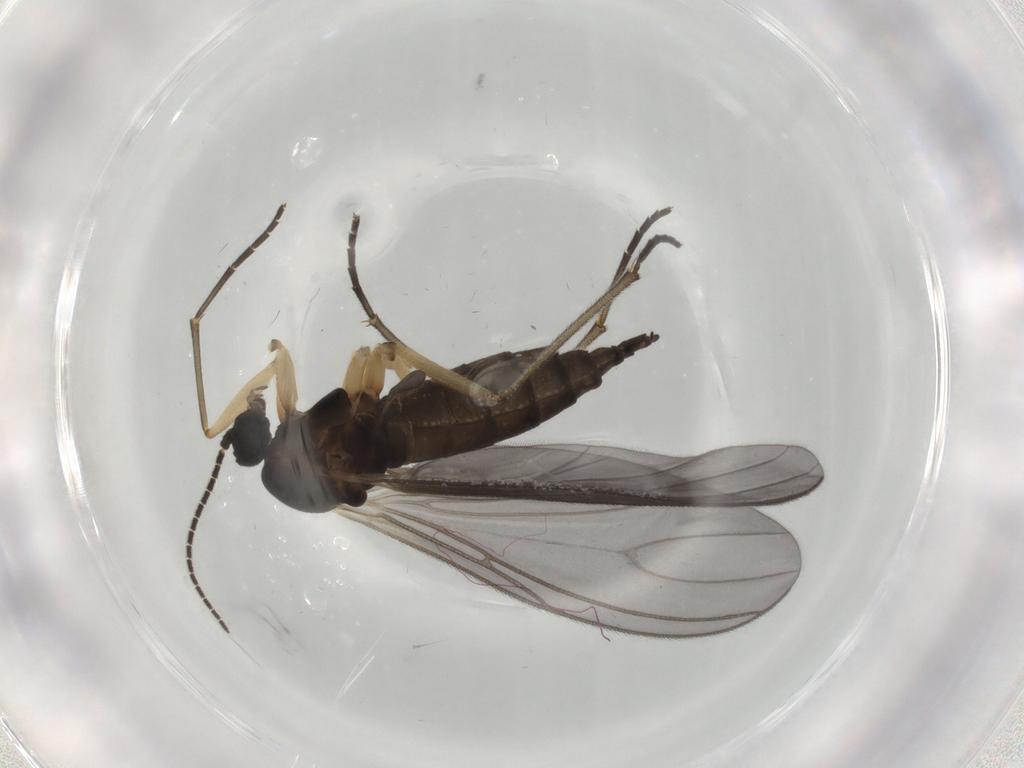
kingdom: Animalia
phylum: Arthropoda
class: Insecta
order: Diptera
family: Sciaridae
